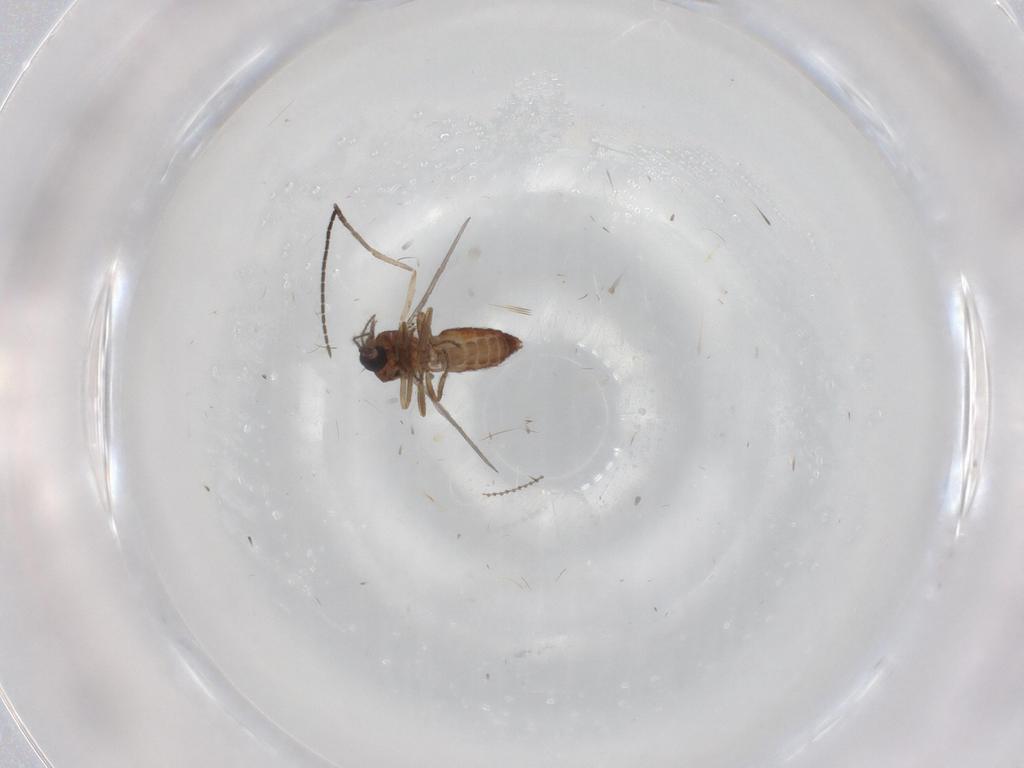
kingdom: Animalia
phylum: Arthropoda
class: Insecta
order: Diptera
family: Ceratopogonidae
